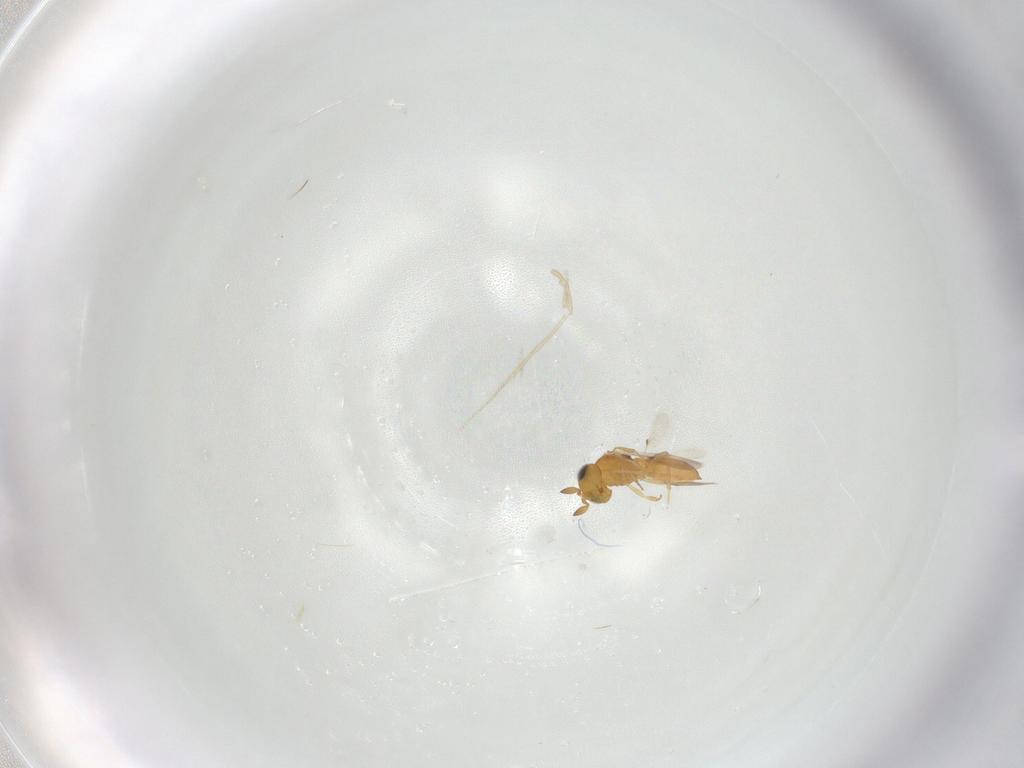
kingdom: Animalia
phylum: Arthropoda
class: Insecta
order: Hymenoptera
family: Scelionidae
